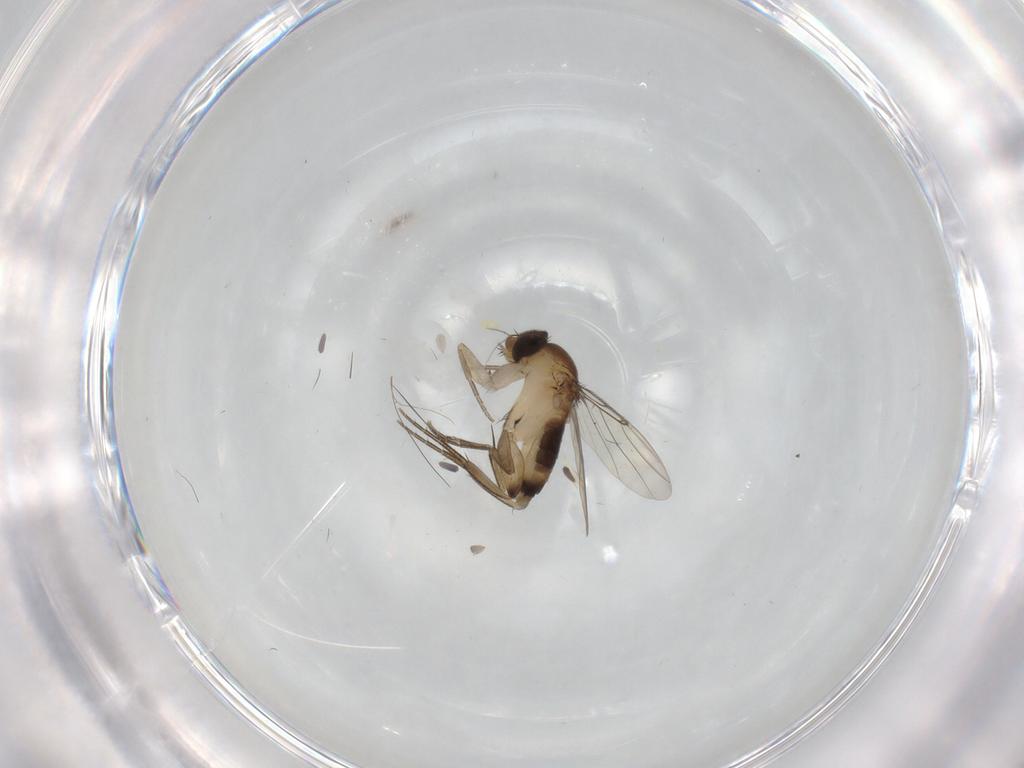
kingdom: Animalia
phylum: Arthropoda
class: Insecta
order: Diptera
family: Phoridae
